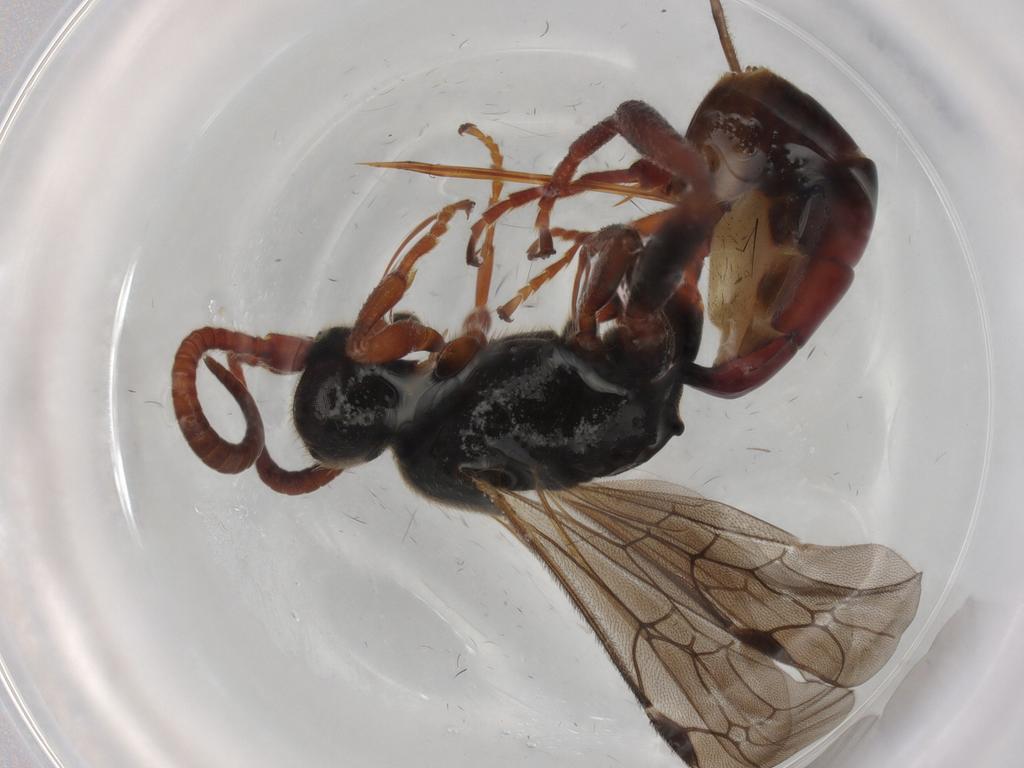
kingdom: Animalia
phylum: Arthropoda
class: Insecta
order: Hymenoptera
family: Ichneumonidae
